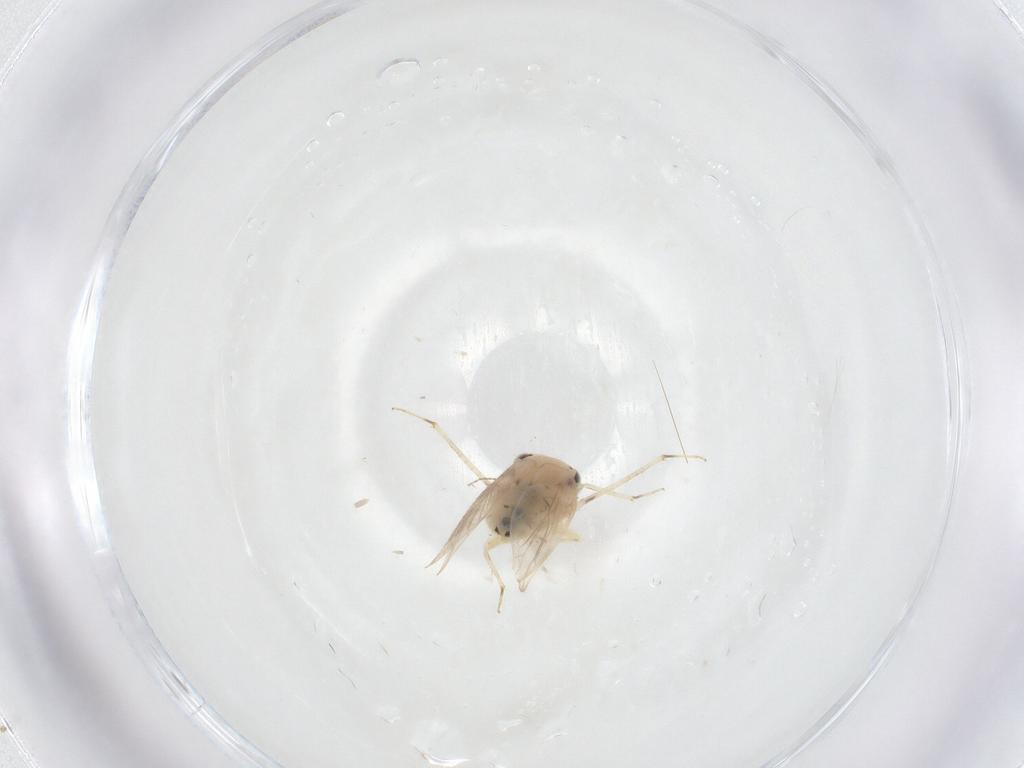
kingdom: Animalia
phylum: Arthropoda
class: Insecta
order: Psocodea
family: Lepidopsocidae
